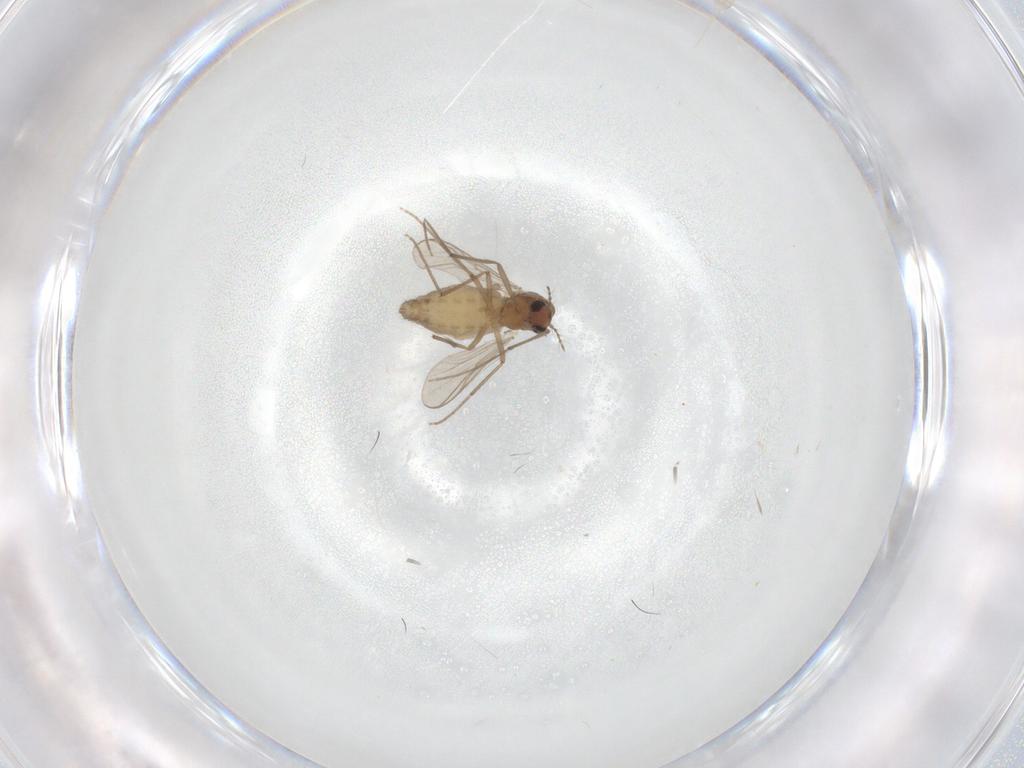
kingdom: Animalia
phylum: Arthropoda
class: Insecta
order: Diptera
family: Chironomidae
